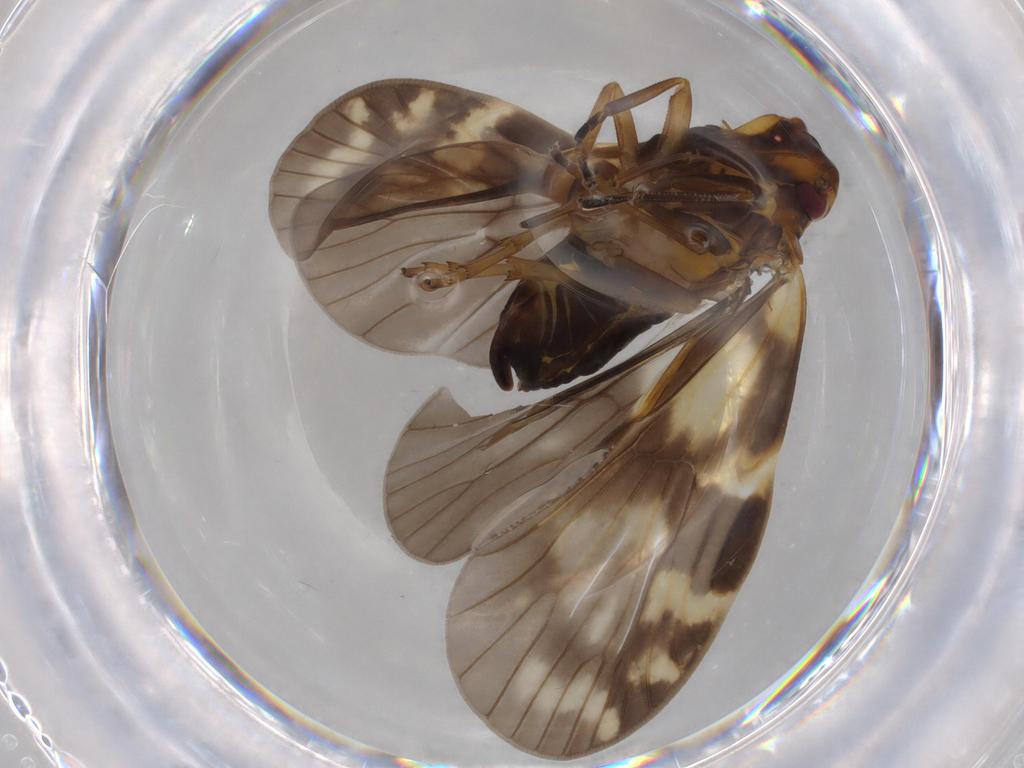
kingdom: Animalia
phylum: Arthropoda
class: Insecta
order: Hemiptera
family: Cixiidae
